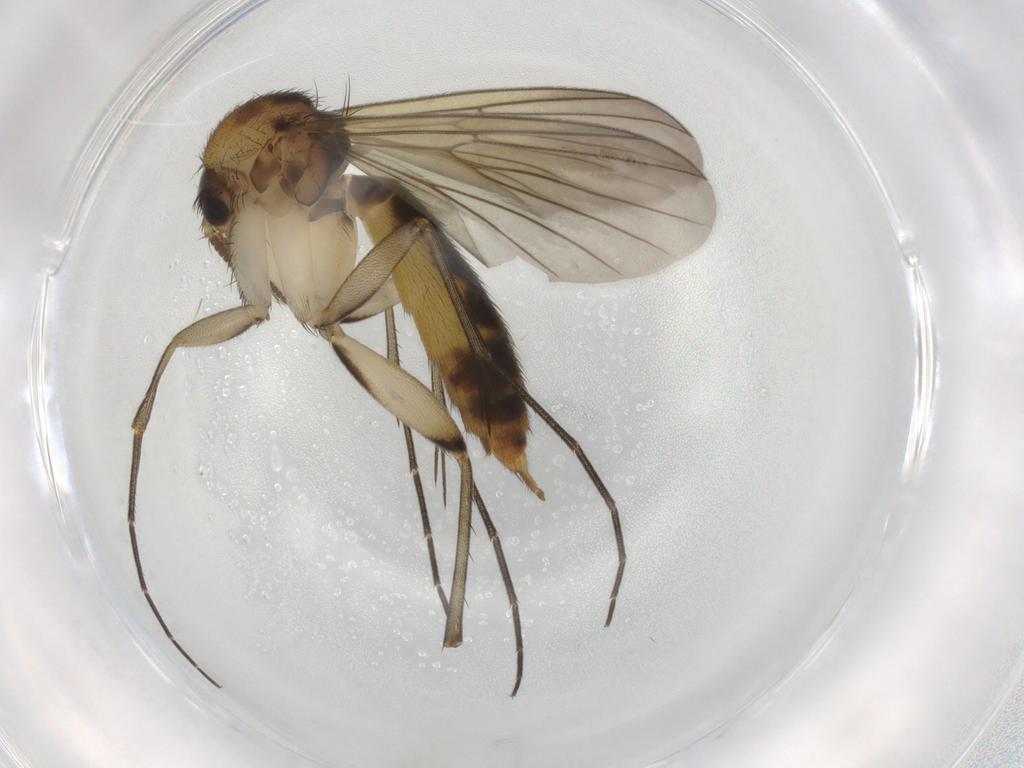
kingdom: Animalia
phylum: Arthropoda
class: Insecta
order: Diptera
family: Mycetophilidae
